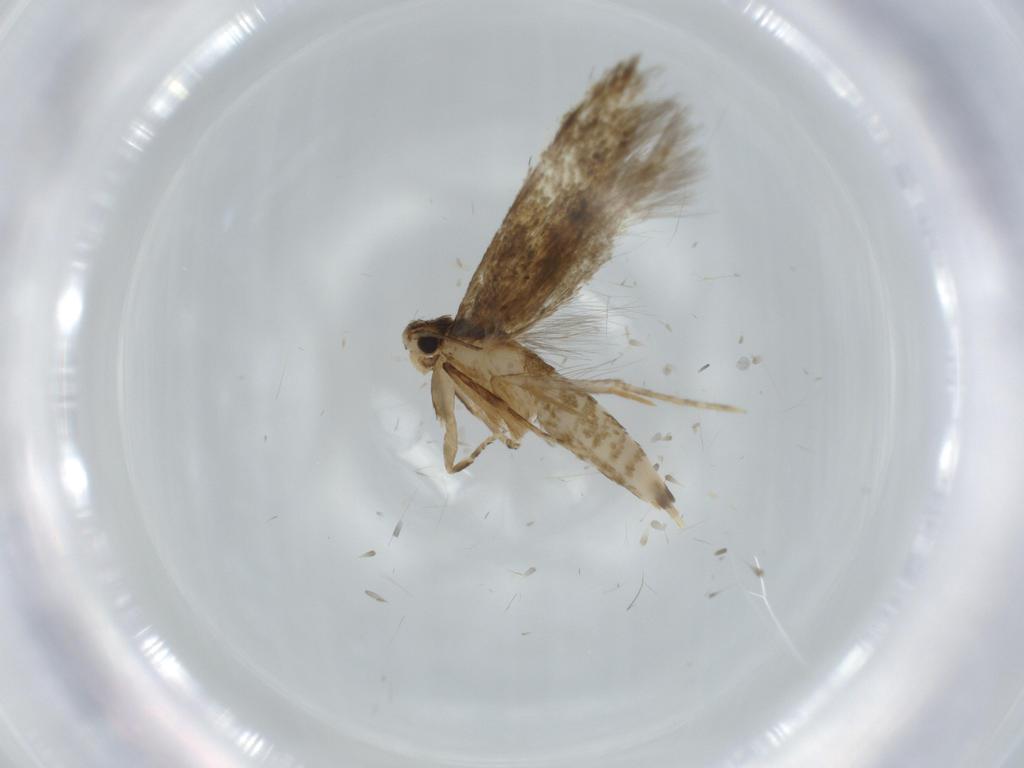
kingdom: Animalia
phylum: Arthropoda
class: Insecta
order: Lepidoptera
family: Tineidae
